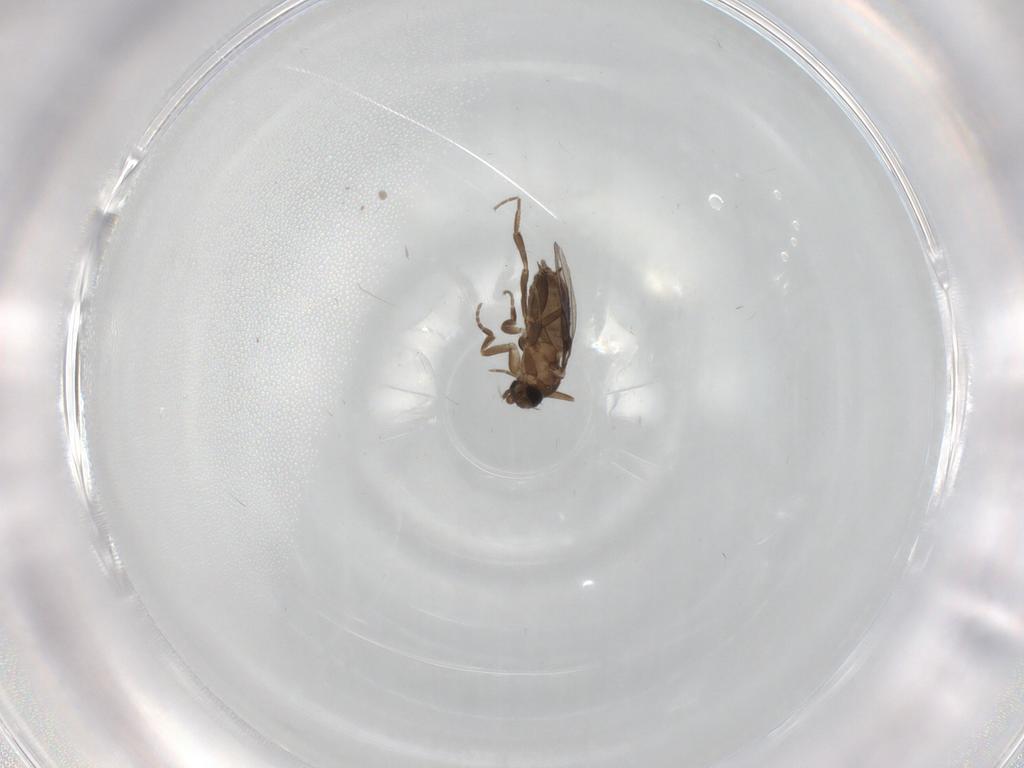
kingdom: Animalia
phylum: Arthropoda
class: Insecta
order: Diptera
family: Phoridae
